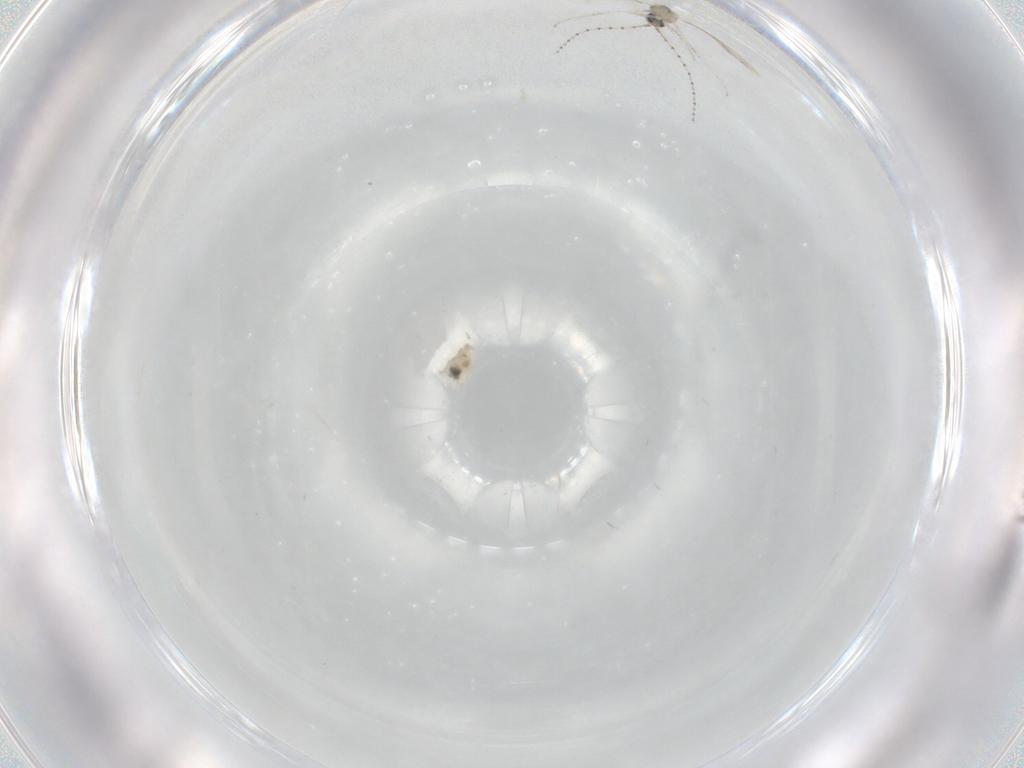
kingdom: Animalia
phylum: Arthropoda
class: Insecta
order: Diptera
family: Cecidomyiidae
